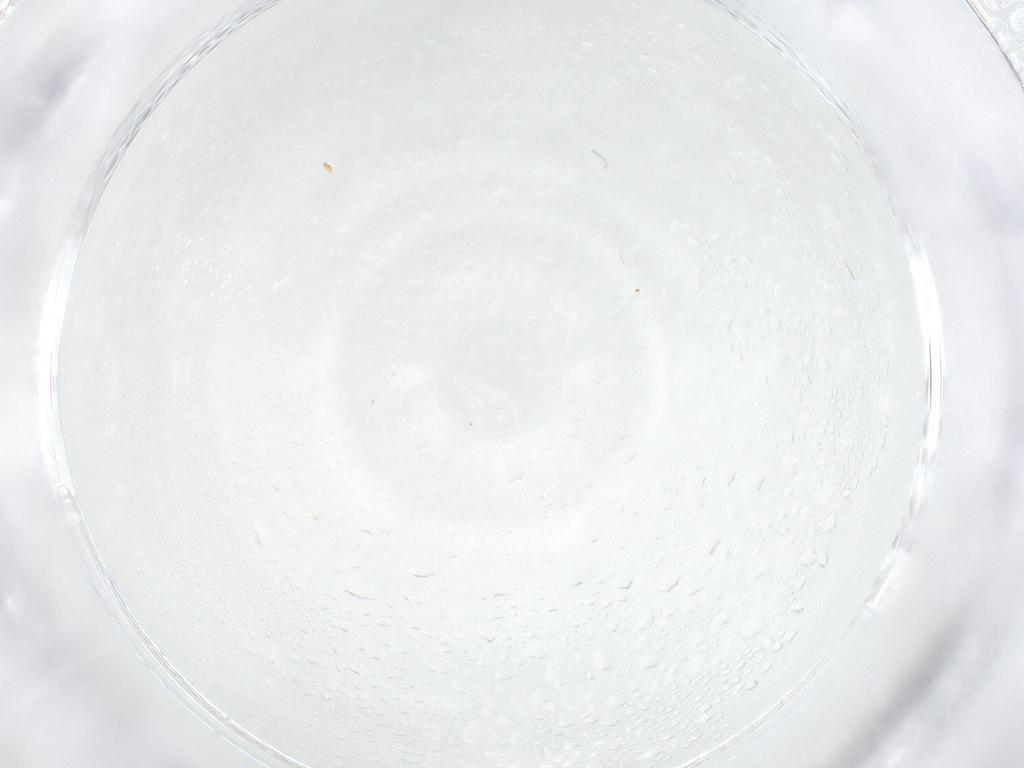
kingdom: Animalia
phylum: Arthropoda
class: Insecta
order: Diptera
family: Cecidomyiidae
